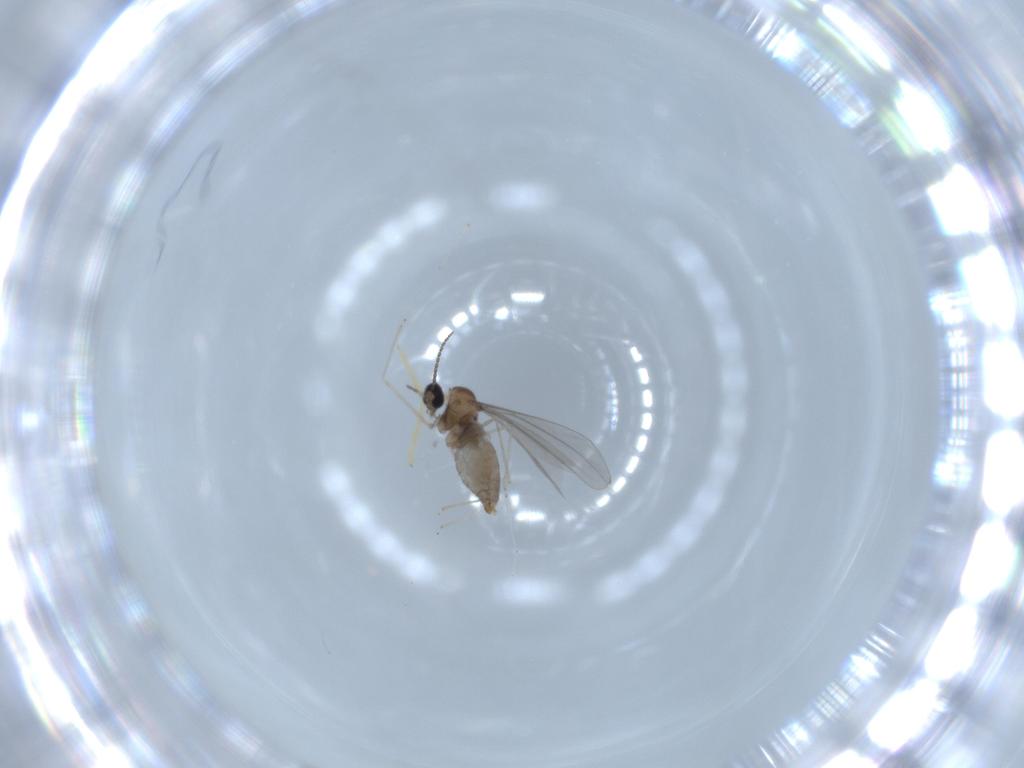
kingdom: Animalia
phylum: Arthropoda
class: Insecta
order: Diptera
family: Cecidomyiidae
